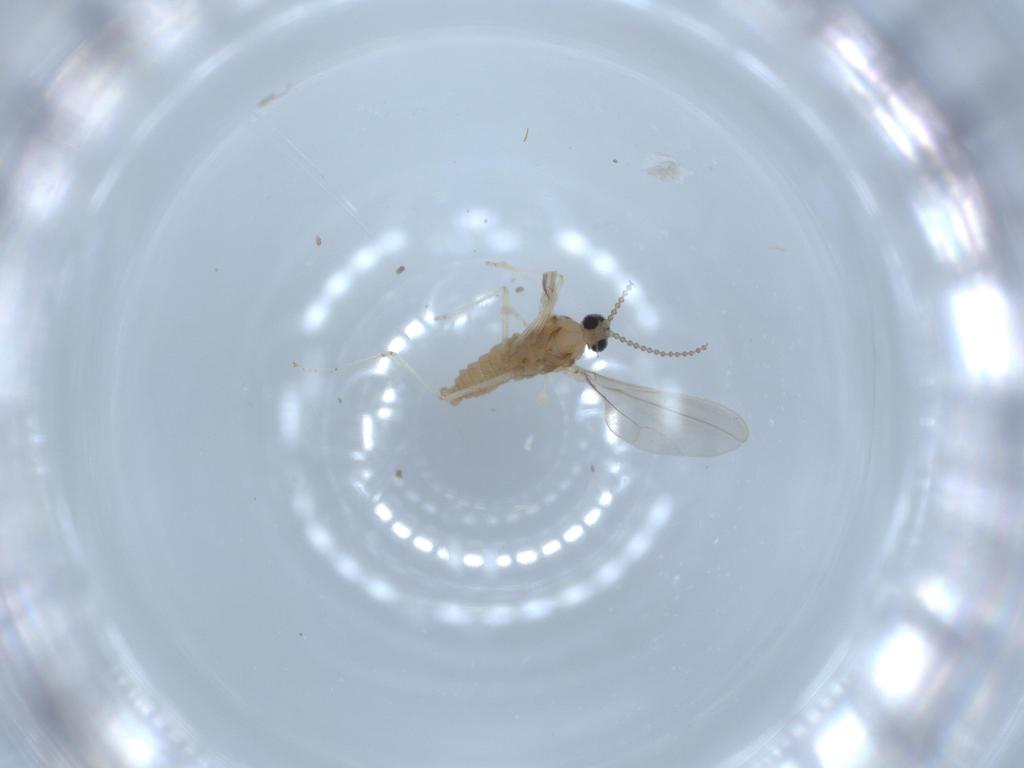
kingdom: Animalia
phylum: Arthropoda
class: Insecta
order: Diptera
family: Cecidomyiidae
